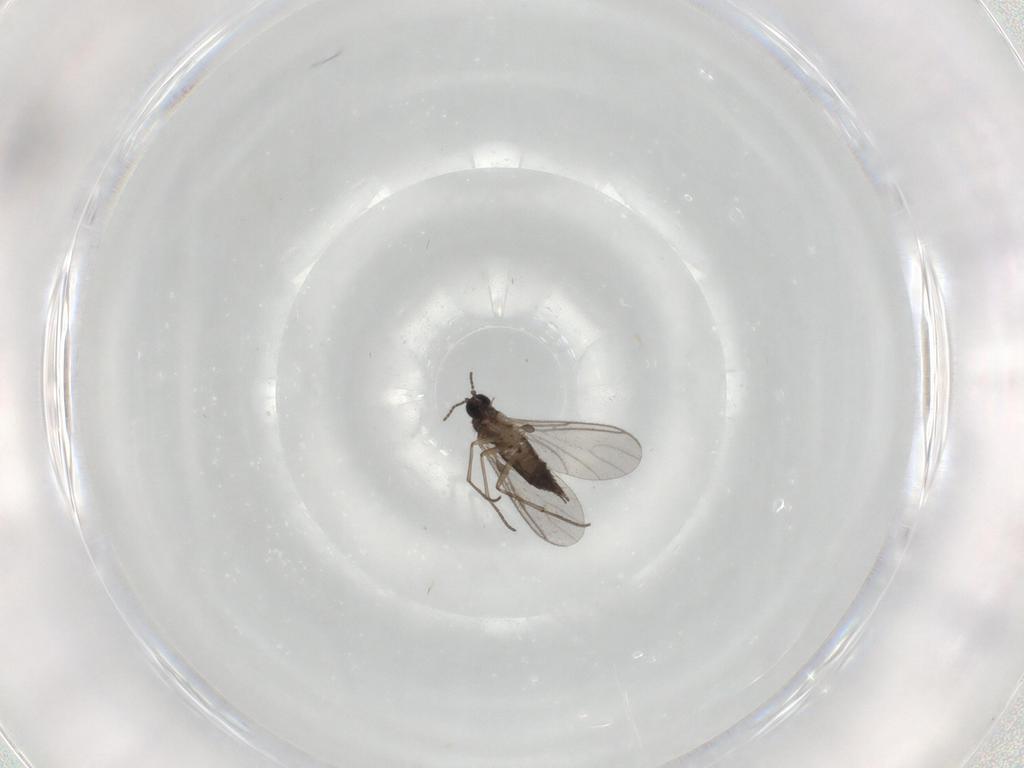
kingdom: Animalia
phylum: Arthropoda
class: Insecta
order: Diptera
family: Sciaridae
